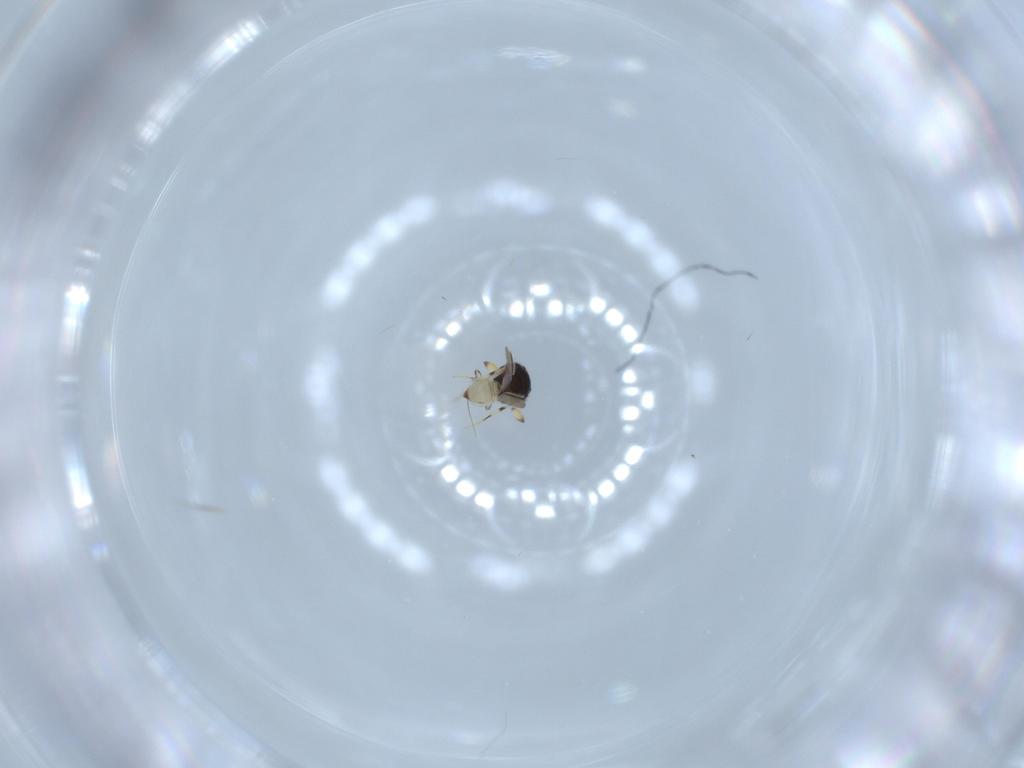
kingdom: Animalia
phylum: Arthropoda
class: Insecta
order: Hymenoptera
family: Scelionidae
